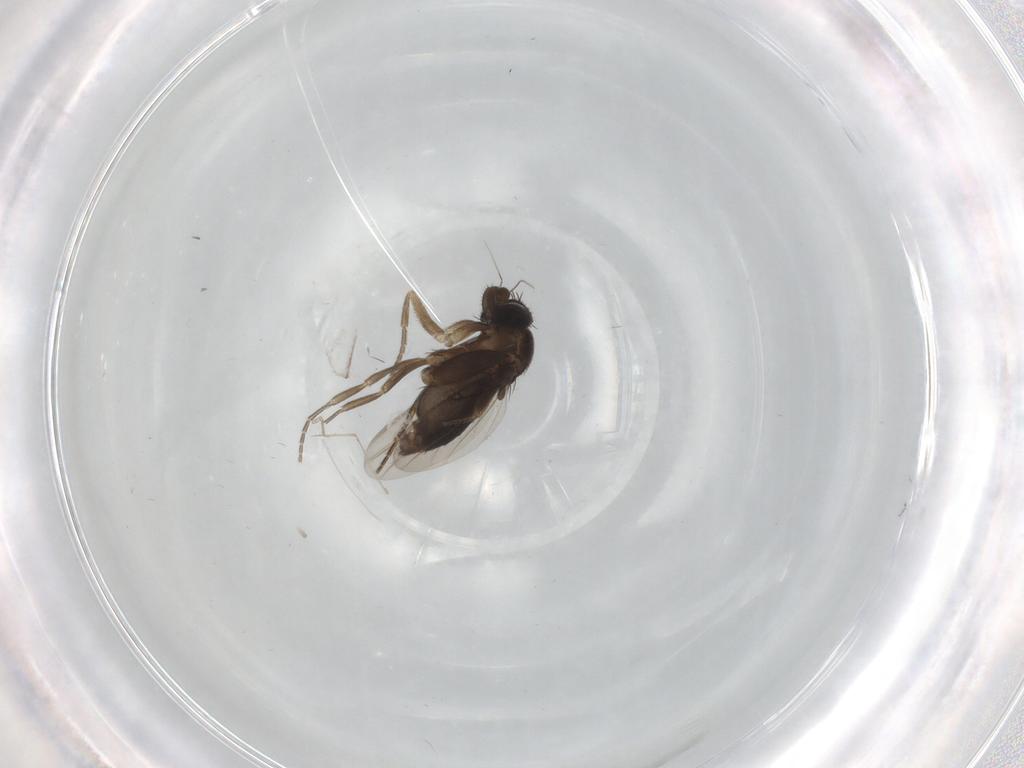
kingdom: Animalia
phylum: Arthropoda
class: Insecta
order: Diptera
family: Phoridae
